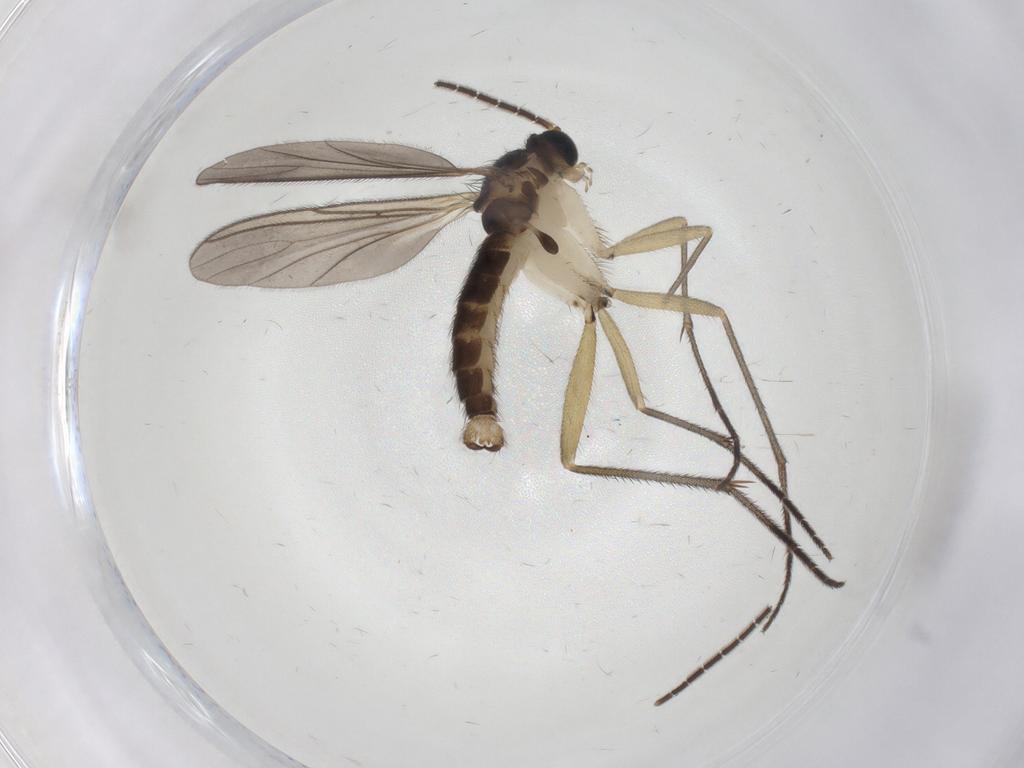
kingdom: Animalia
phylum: Arthropoda
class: Insecta
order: Diptera
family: Sciaridae
